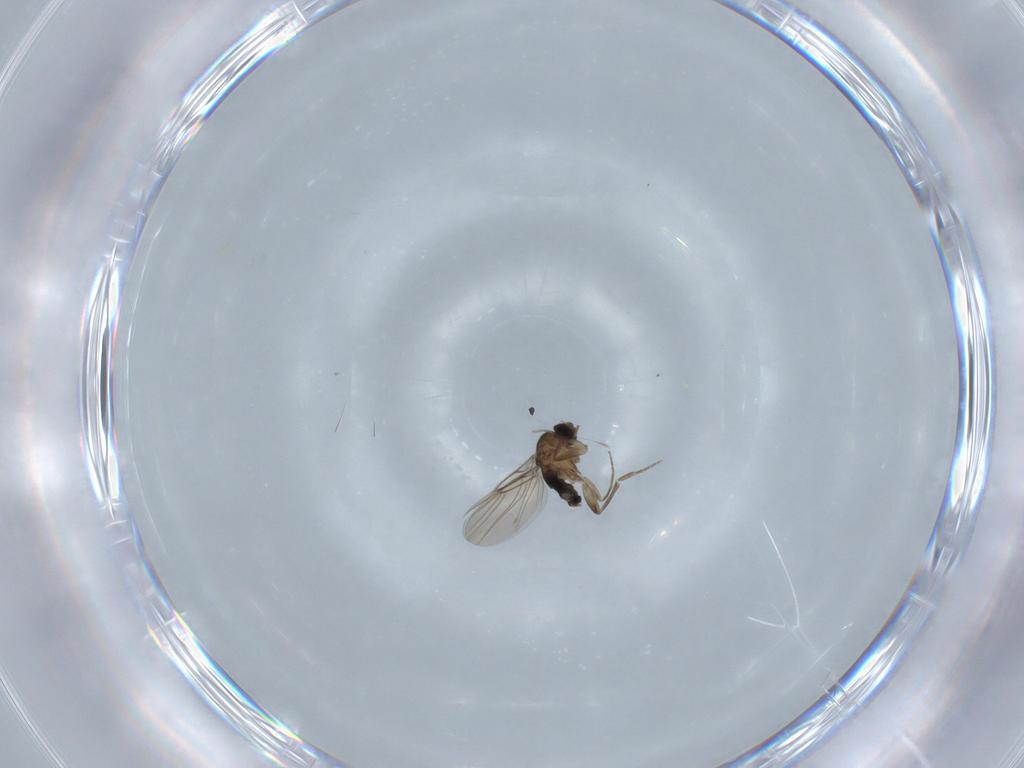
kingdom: Animalia
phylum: Arthropoda
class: Insecta
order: Diptera
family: Phoridae
